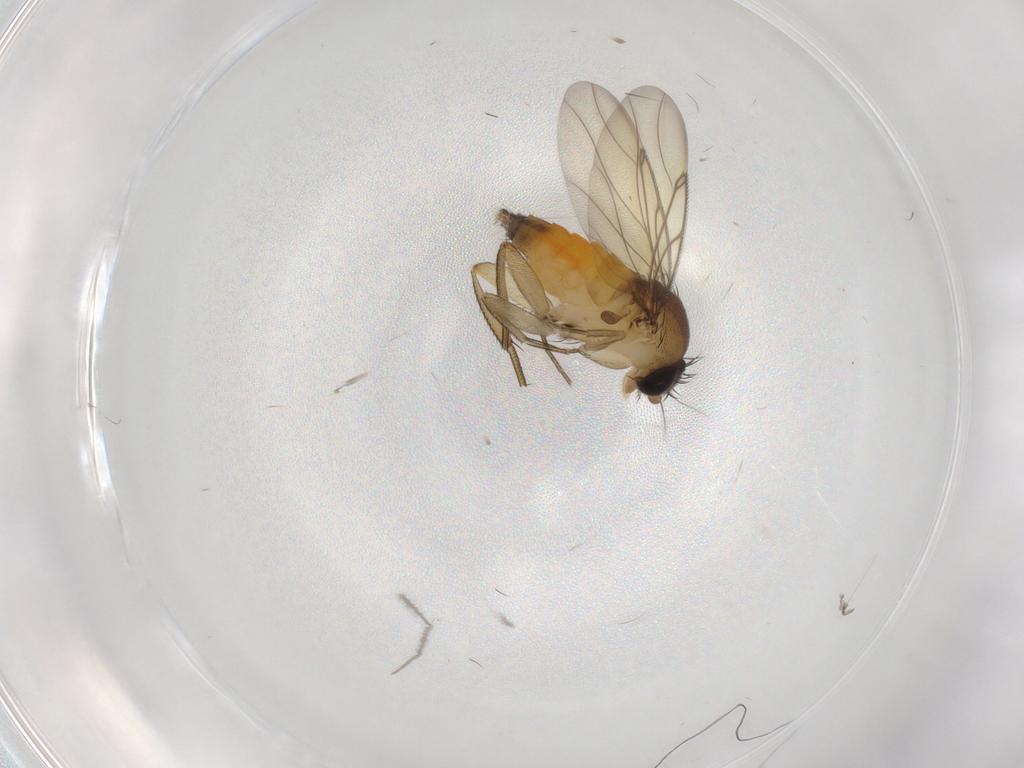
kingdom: Animalia
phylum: Arthropoda
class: Insecta
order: Diptera
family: Chironomidae
